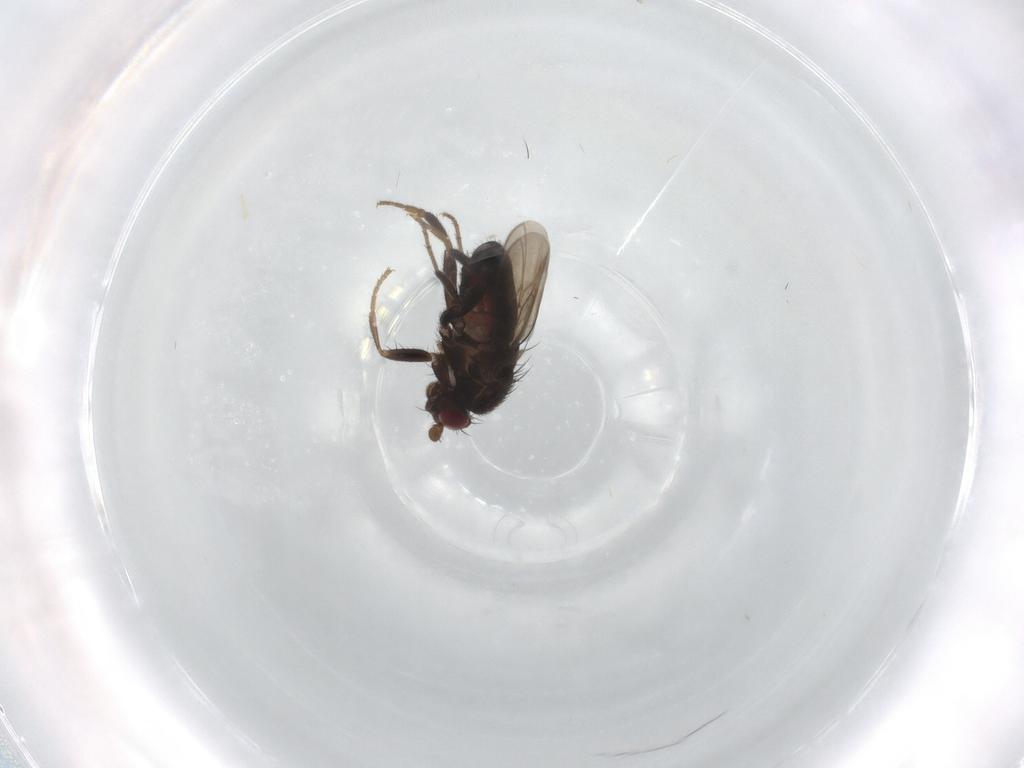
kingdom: Animalia
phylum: Arthropoda
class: Insecta
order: Diptera
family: Sphaeroceridae
